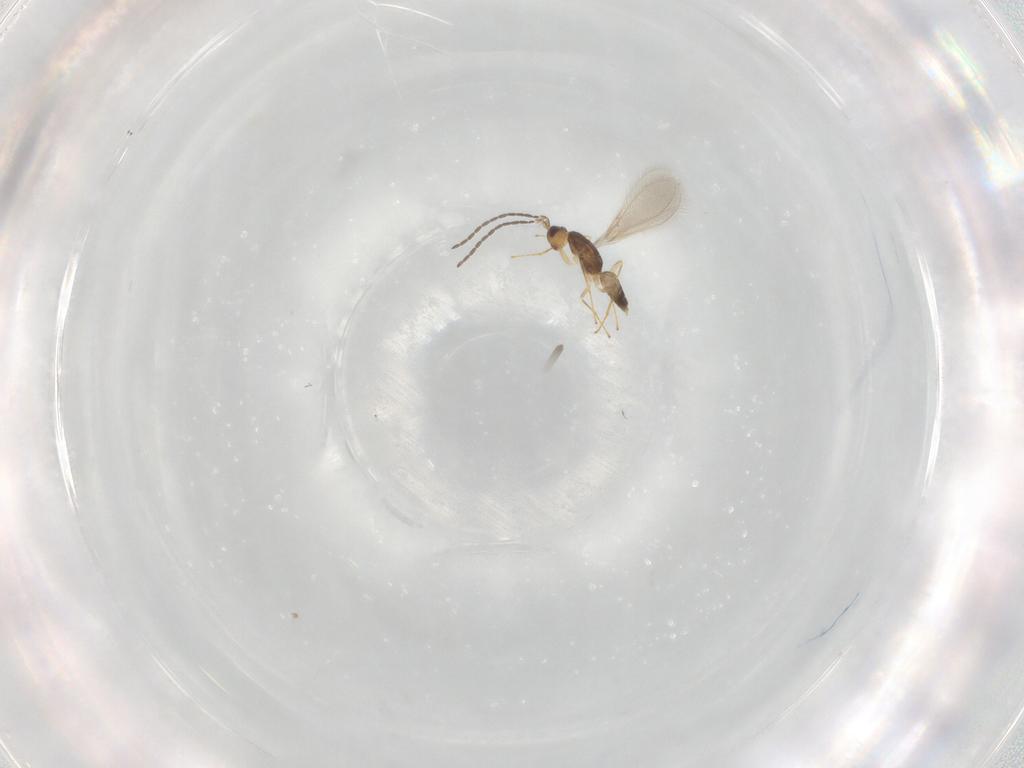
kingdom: Animalia
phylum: Arthropoda
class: Insecta
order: Hymenoptera
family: Mymaridae
